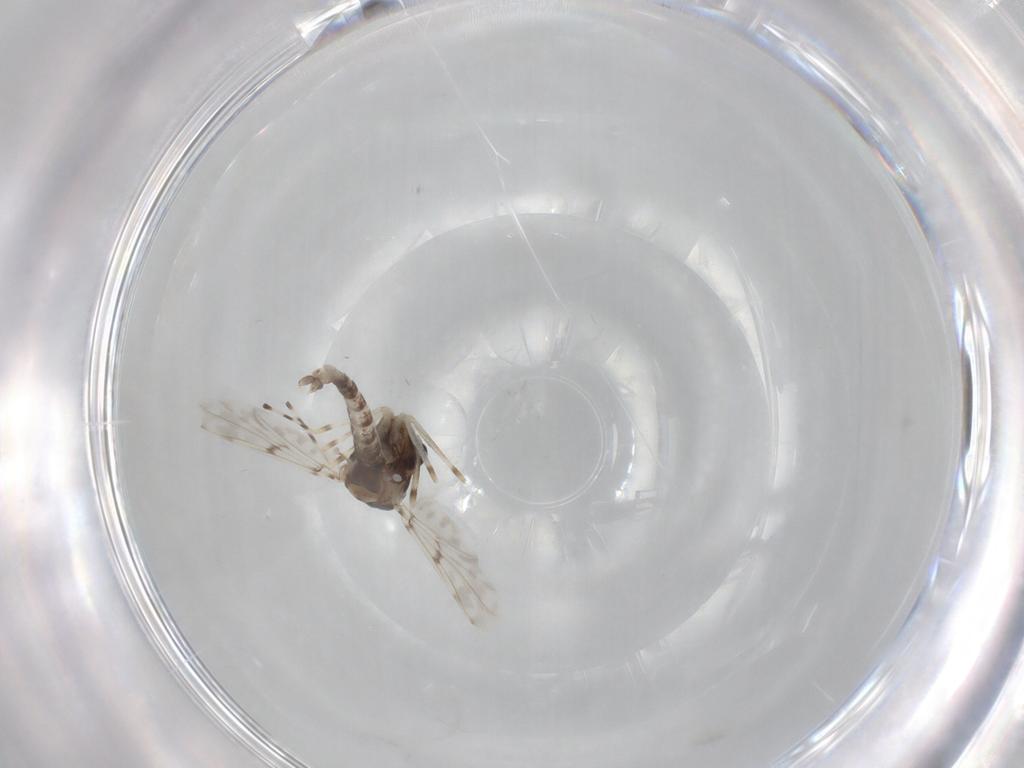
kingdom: Animalia
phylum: Arthropoda
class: Insecta
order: Diptera
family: Chironomidae
